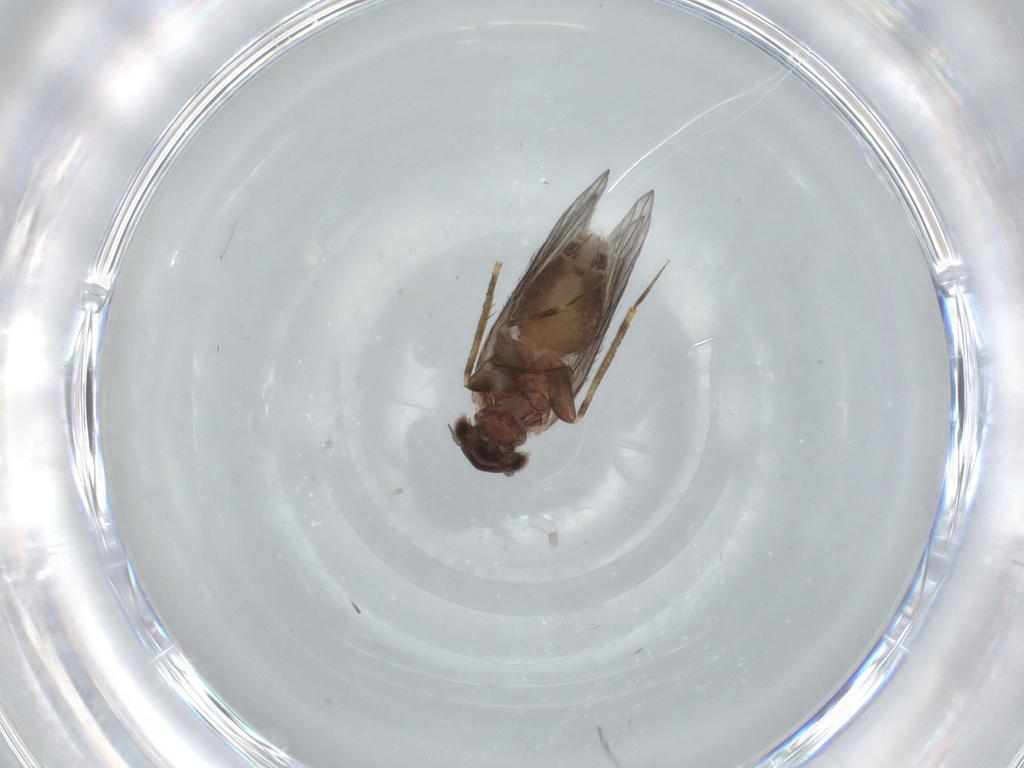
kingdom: Animalia
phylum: Arthropoda
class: Insecta
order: Psocodea
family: Lepidopsocidae
